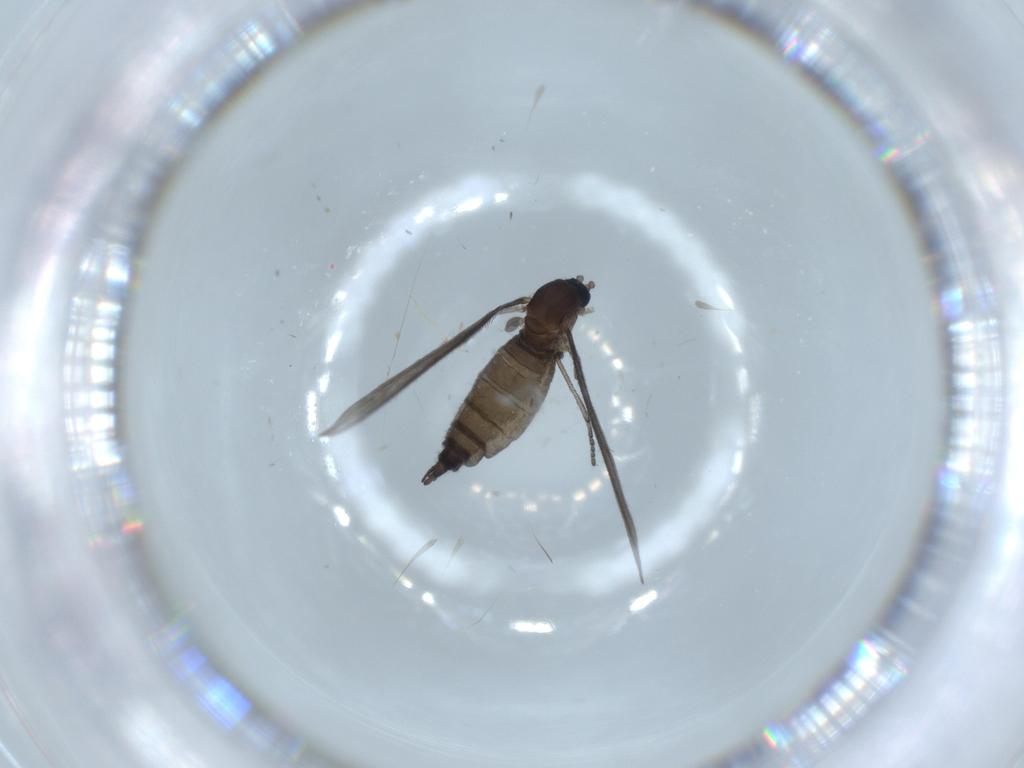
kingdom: Animalia
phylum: Arthropoda
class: Insecta
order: Diptera
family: Sciaridae
